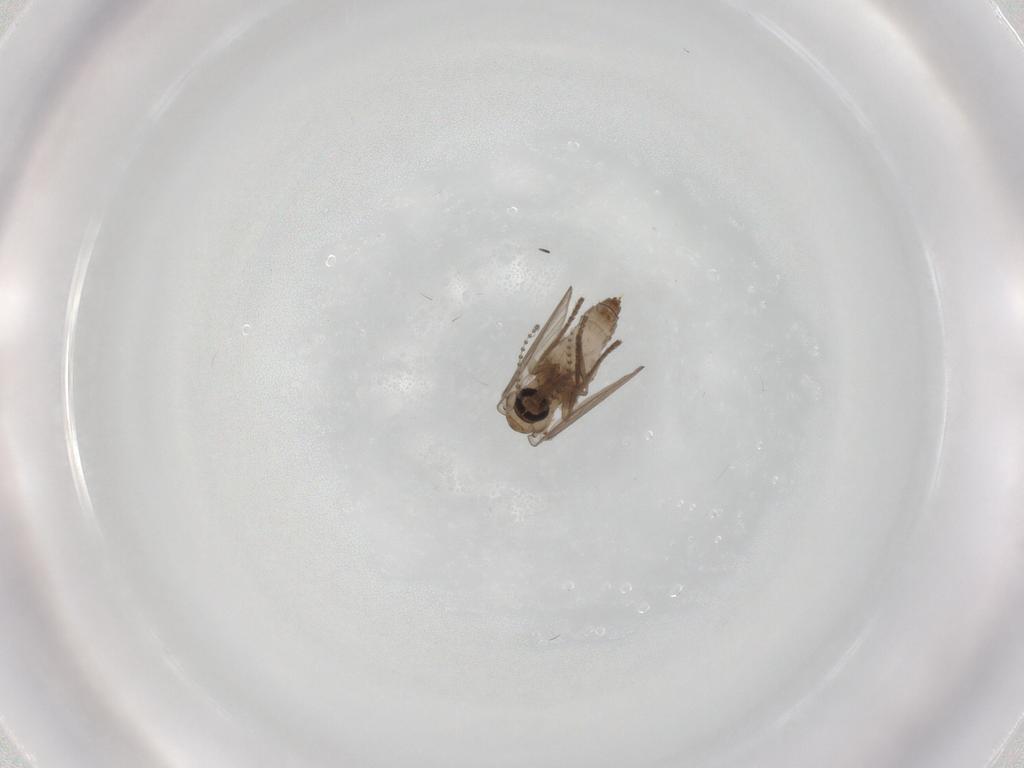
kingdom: Animalia
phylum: Arthropoda
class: Insecta
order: Diptera
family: Psychodidae
